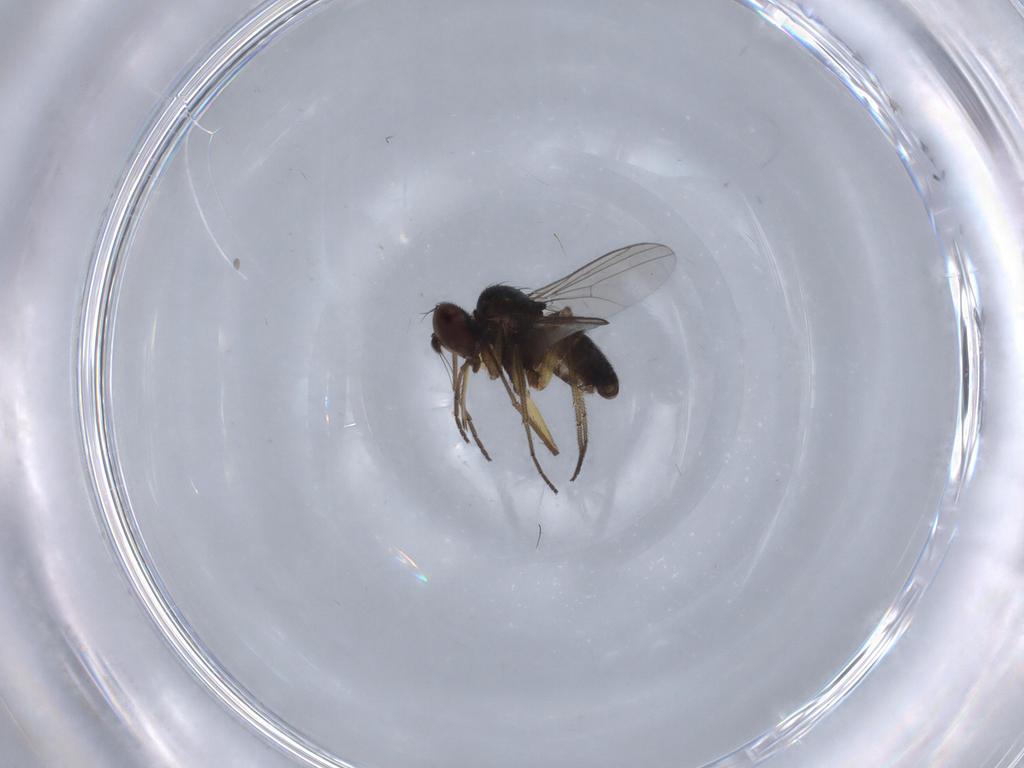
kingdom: Animalia
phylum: Arthropoda
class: Insecta
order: Diptera
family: Dolichopodidae
